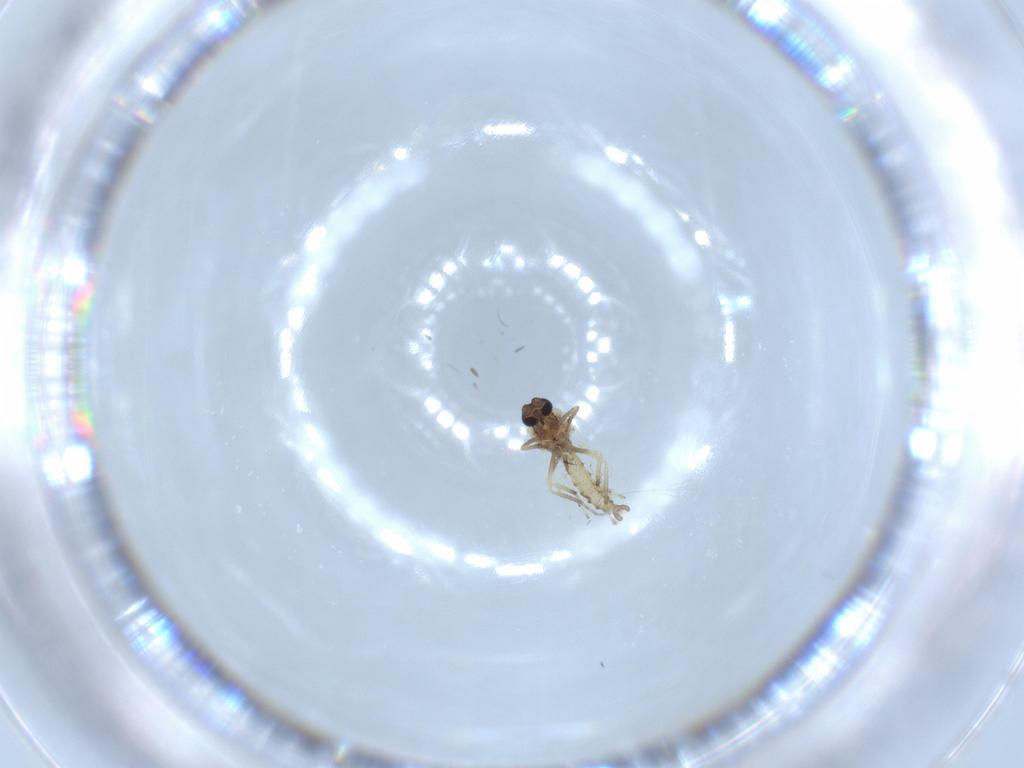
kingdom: Animalia
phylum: Arthropoda
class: Insecta
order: Diptera
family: Ceratopogonidae
